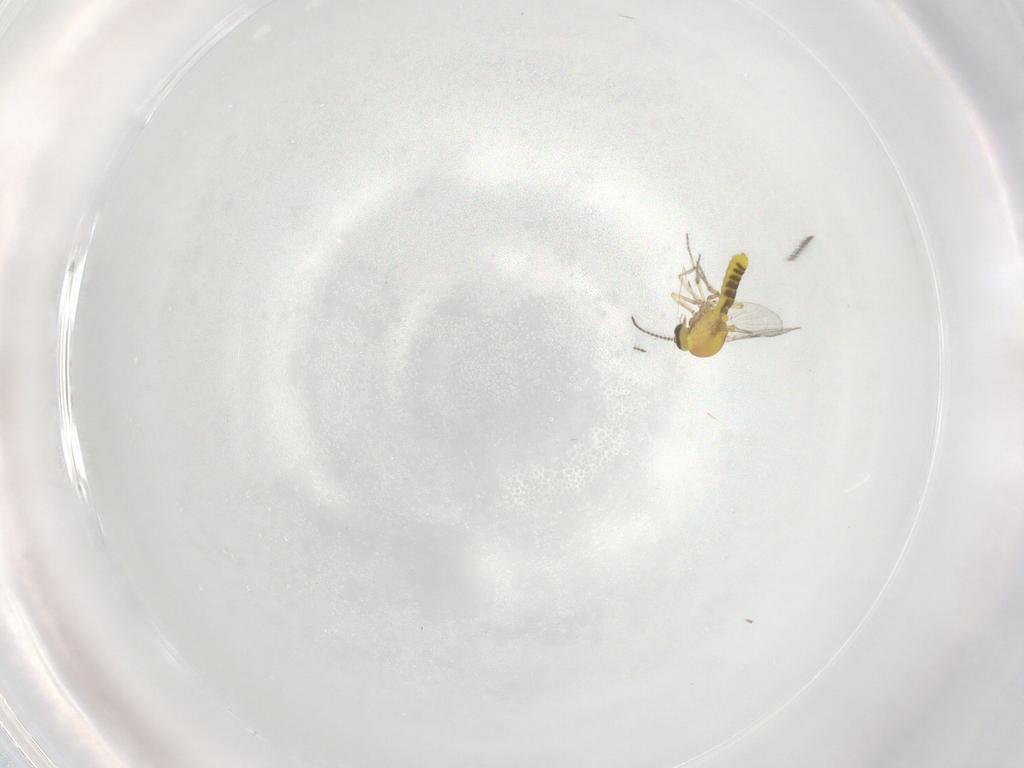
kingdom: Animalia
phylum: Arthropoda
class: Insecta
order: Diptera
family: Ceratopogonidae
